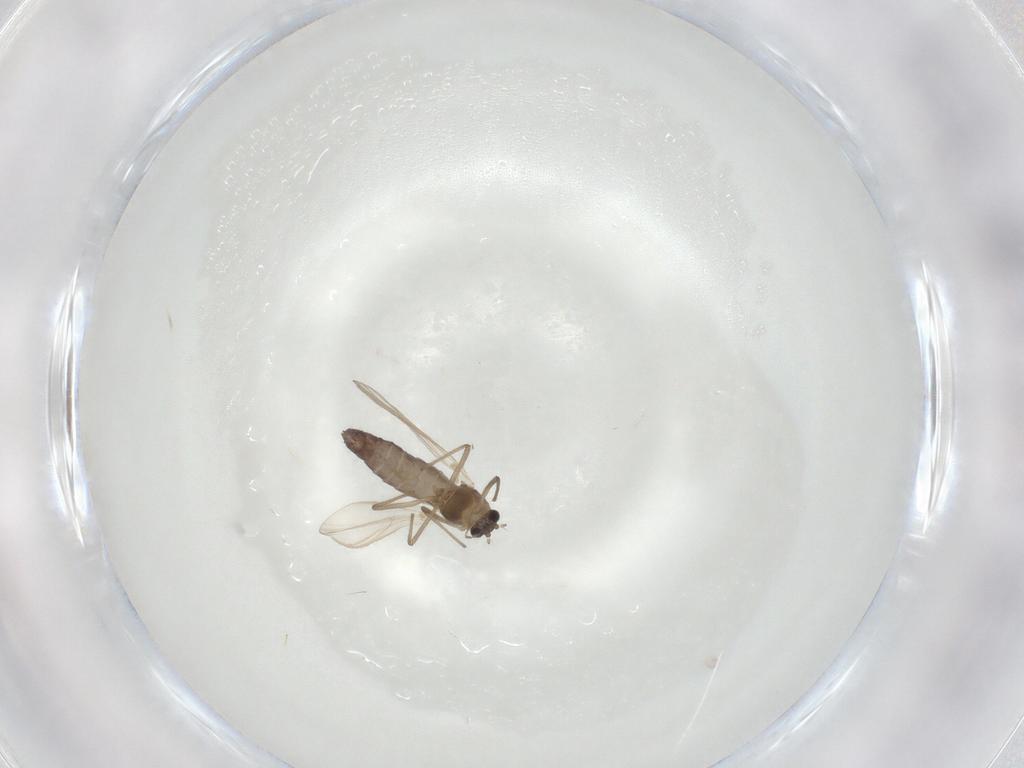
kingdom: Animalia
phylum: Arthropoda
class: Insecta
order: Diptera
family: Chironomidae
